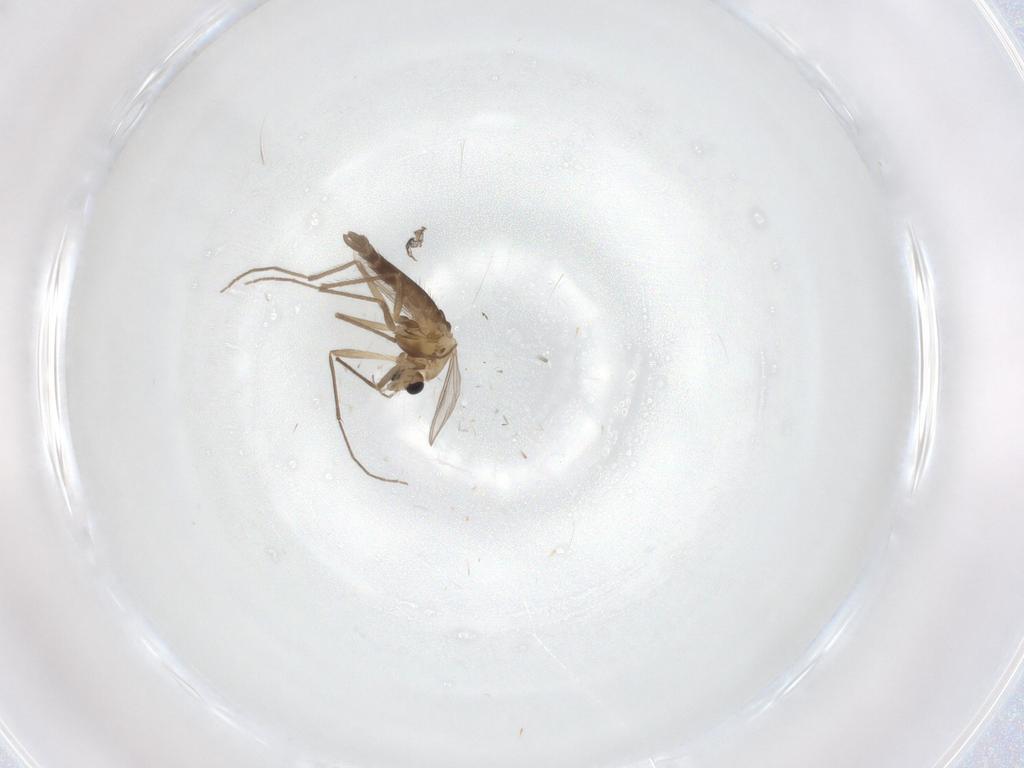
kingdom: Animalia
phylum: Arthropoda
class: Insecta
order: Diptera
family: Chironomidae
